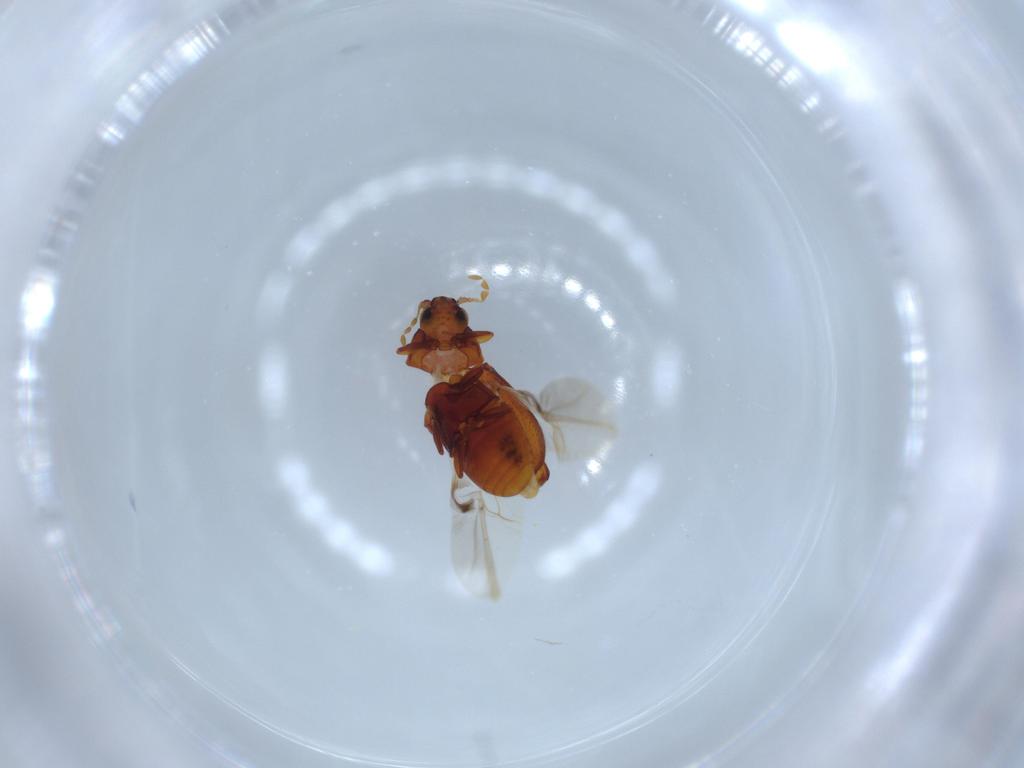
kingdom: Animalia
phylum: Arthropoda
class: Insecta
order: Coleoptera
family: Ptinidae
